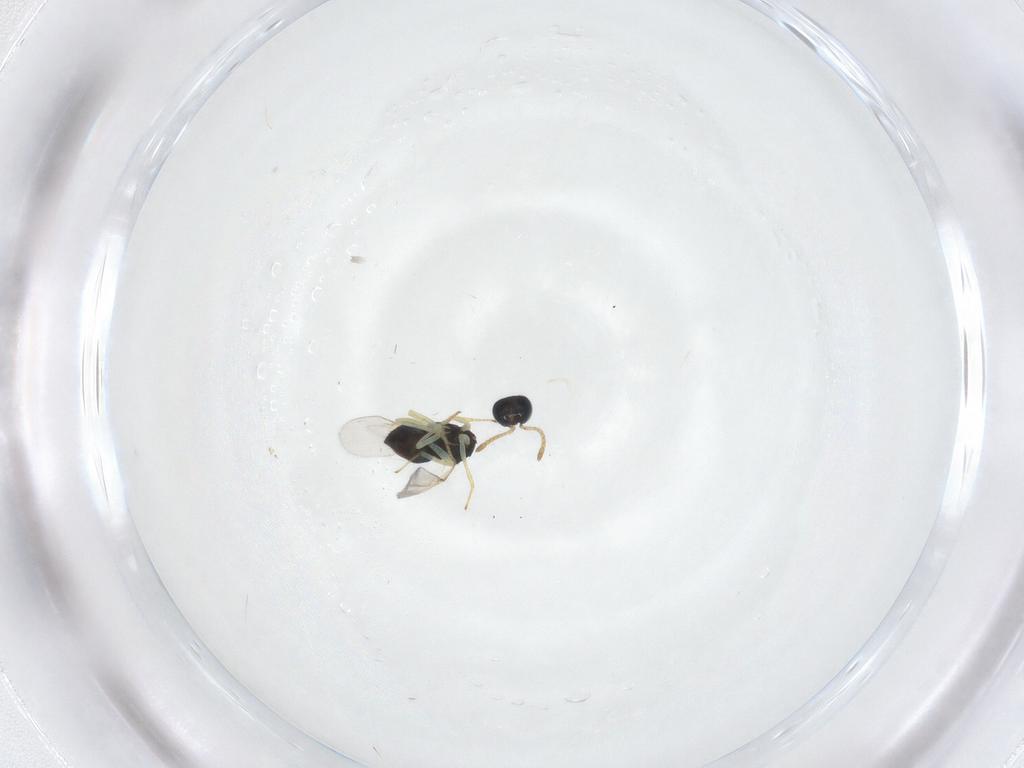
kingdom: Animalia
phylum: Arthropoda
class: Insecta
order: Diptera
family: Sciaridae
